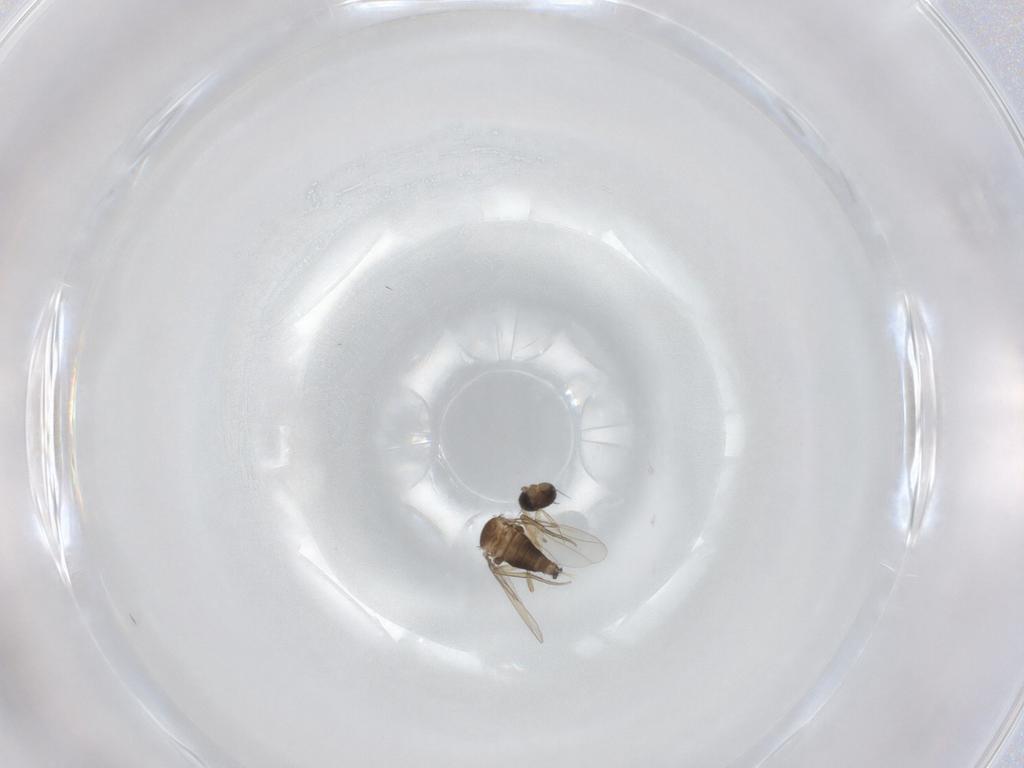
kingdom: Animalia
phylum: Arthropoda
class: Insecta
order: Diptera
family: Phoridae
